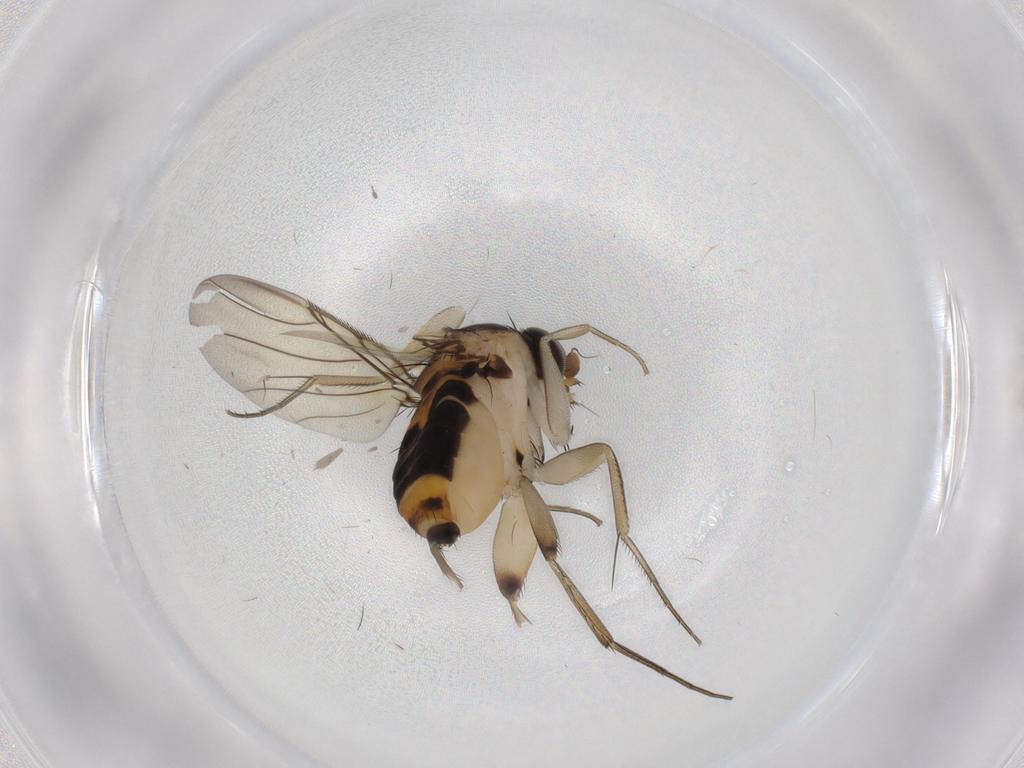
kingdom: Animalia
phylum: Arthropoda
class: Insecta
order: Diptera
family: Phoridae
